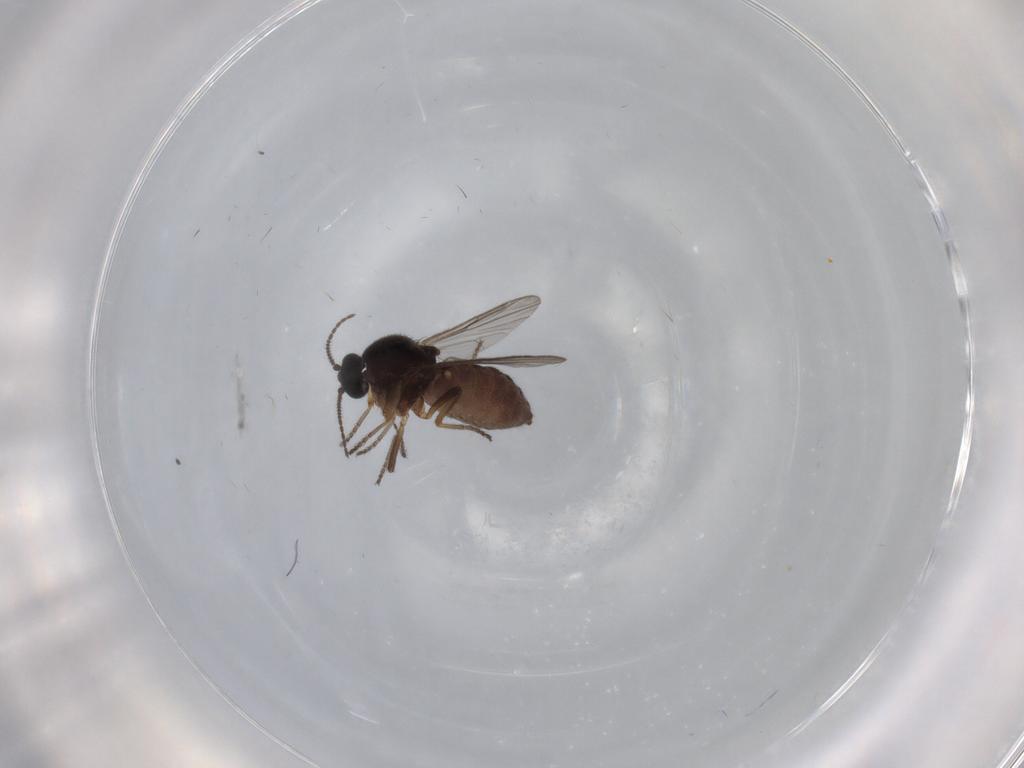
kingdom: Animalia
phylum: Arthropoda
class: Insecta
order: Diptera
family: Ceratopogonidae
